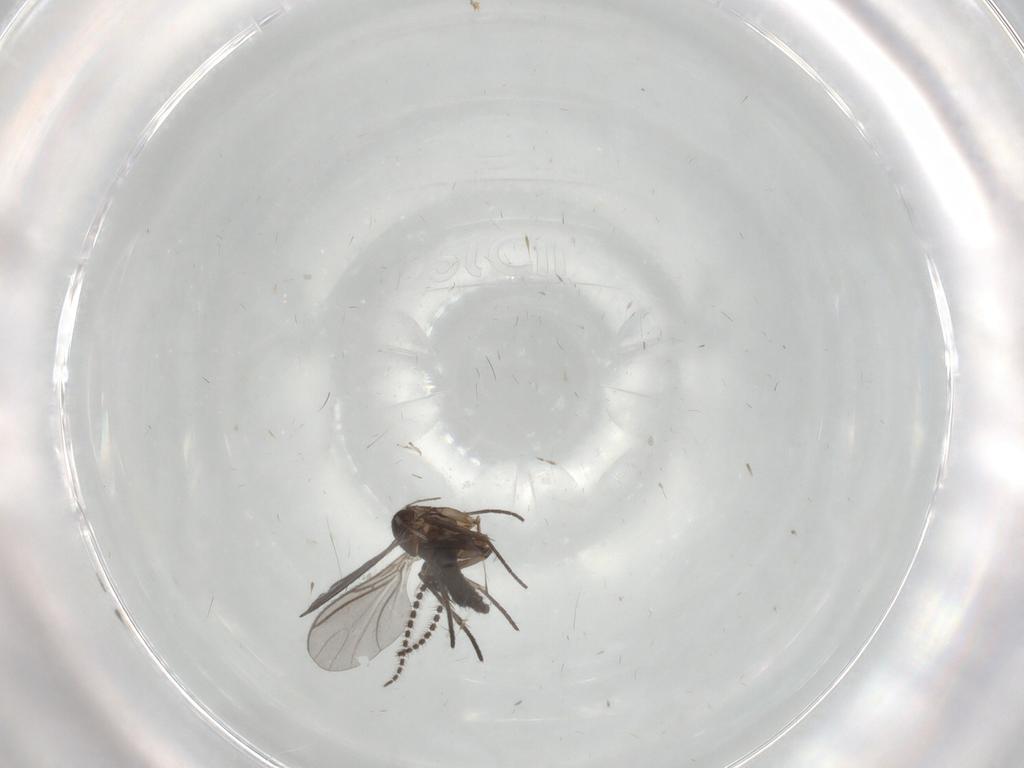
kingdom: Animalia
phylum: Arthropoda
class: Insecta
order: Diptera
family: Sciaridae
